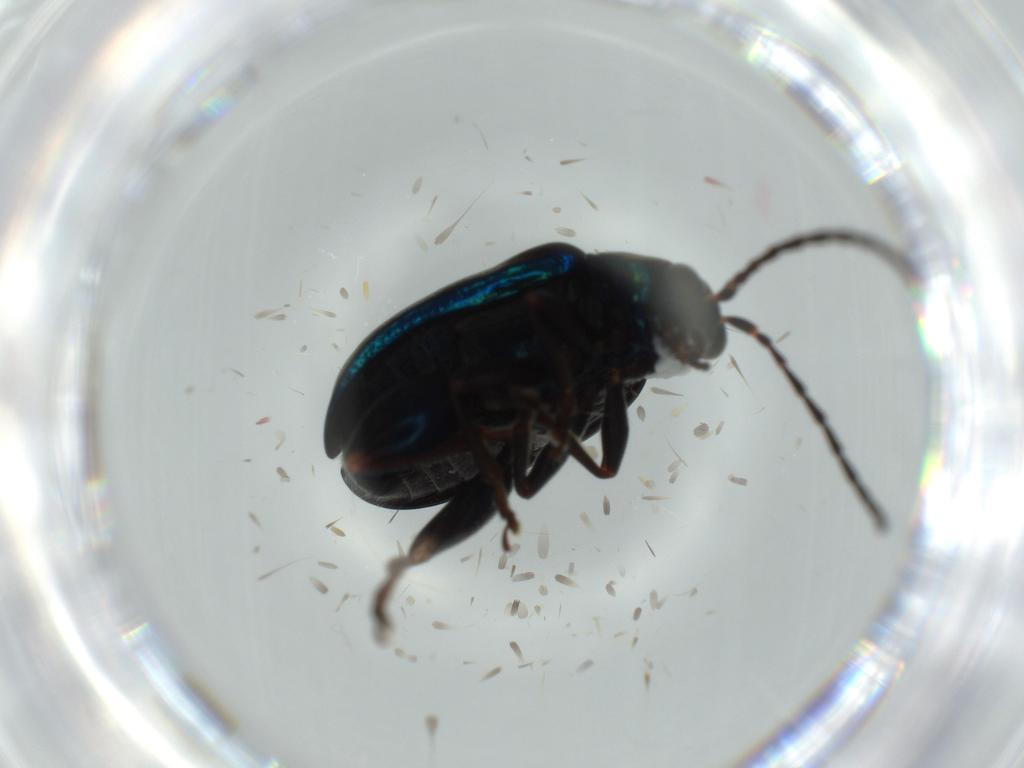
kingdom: Animalia
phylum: Arthropoda
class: Insecta
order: Coleoptera
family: Chrysomelidae
